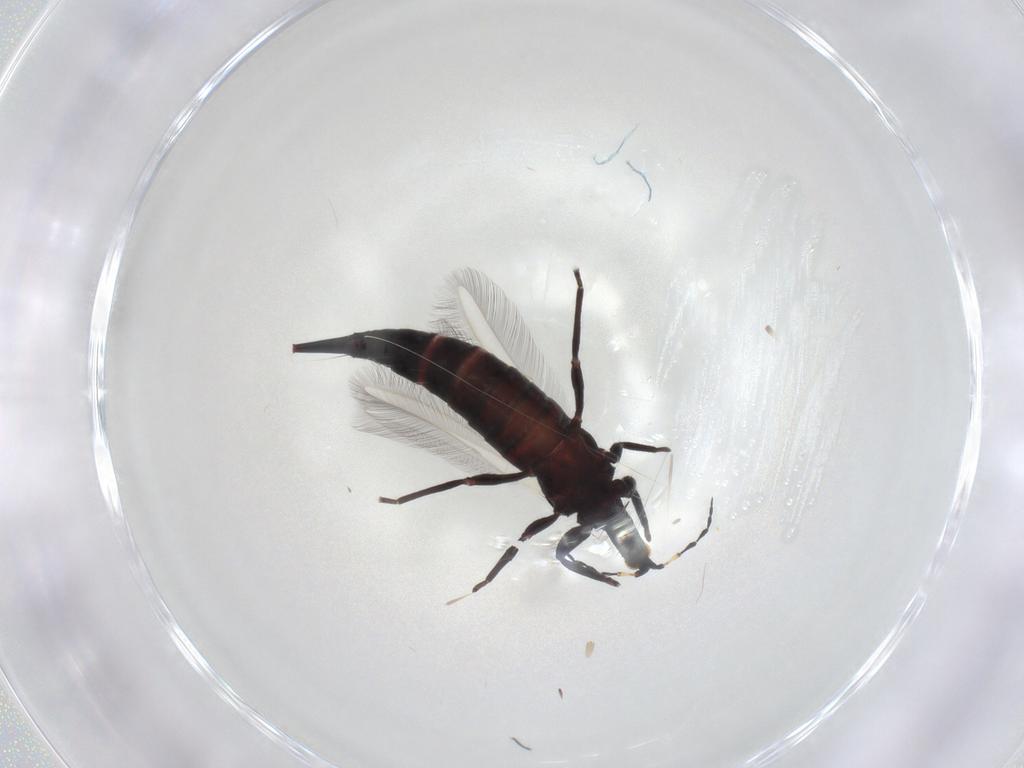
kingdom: Animalia
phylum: Arthropoda
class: Insecta
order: Thysanoptera
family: Phlaeothripidae
